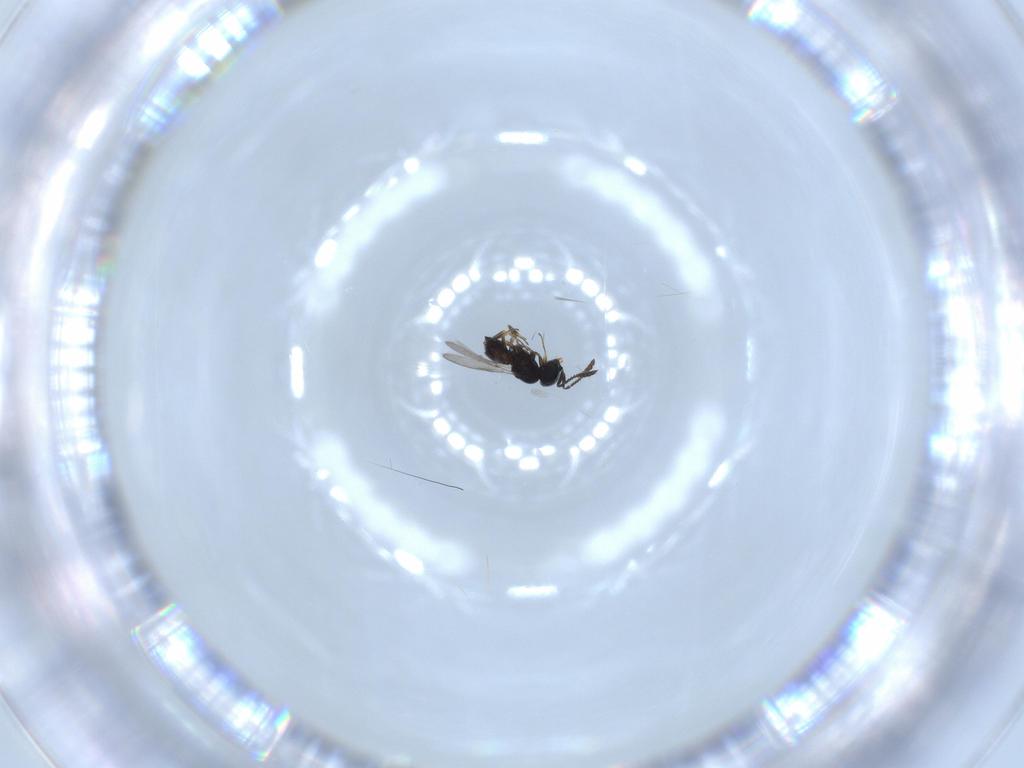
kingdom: Animalia
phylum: Arthropoda
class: Insecta
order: Hymenoptera
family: Scelionidae
